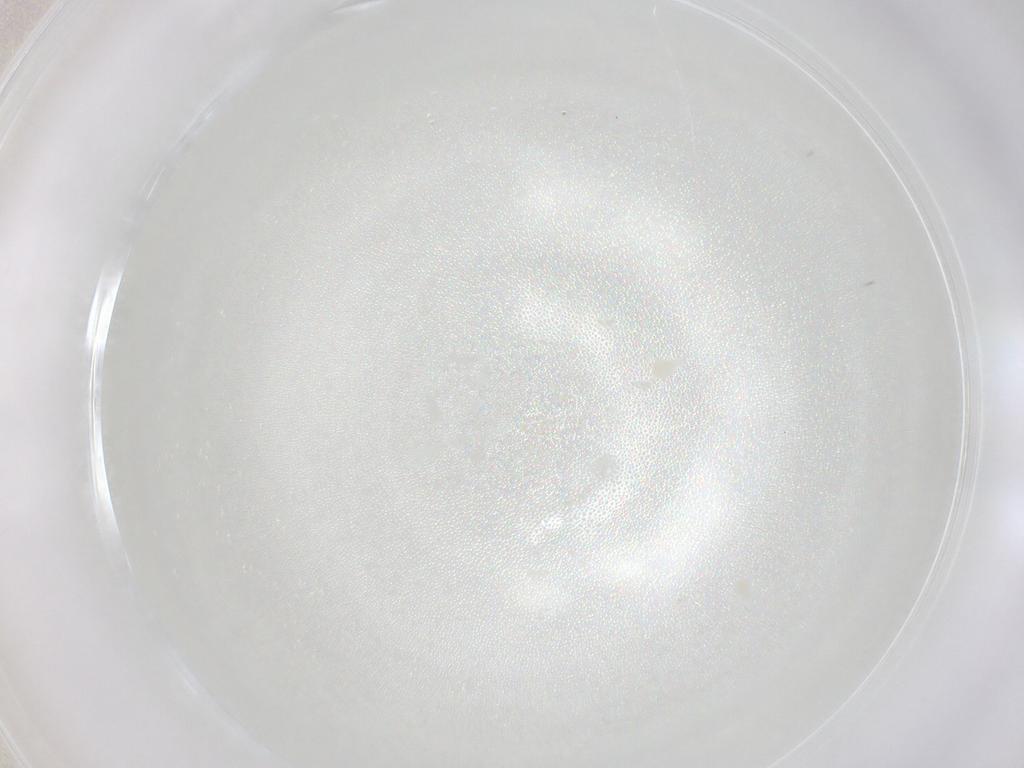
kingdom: Animalia
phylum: Arthropoda
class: Arachnida
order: Trombidiformes
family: Eupodidae
